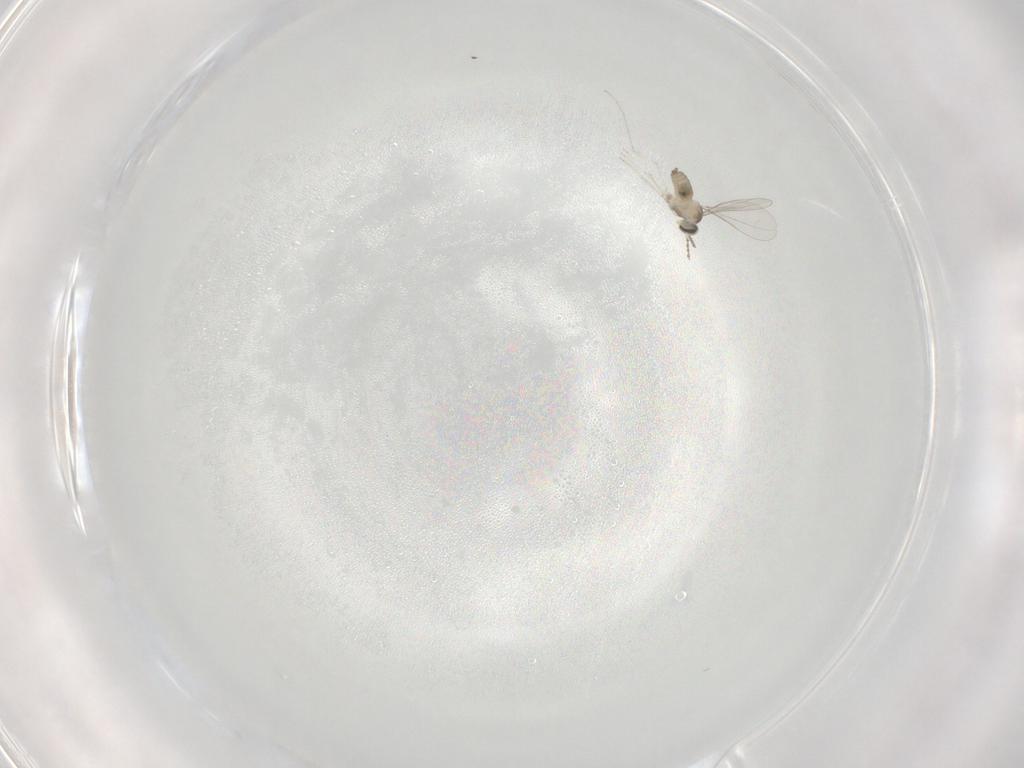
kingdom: Animalia
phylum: Arthropoda
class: Insecta
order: Diptera
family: Cecidomyiidae
